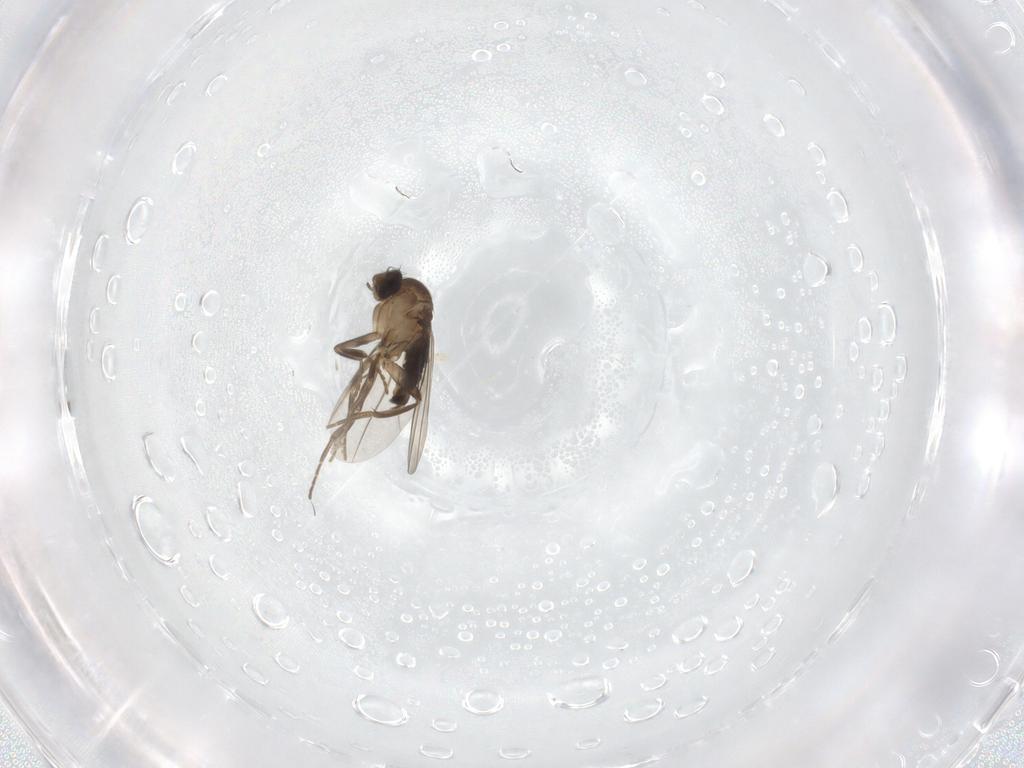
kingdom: Animalia
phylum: Arthropoda
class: Insecta
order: Diptera
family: Phoridae
